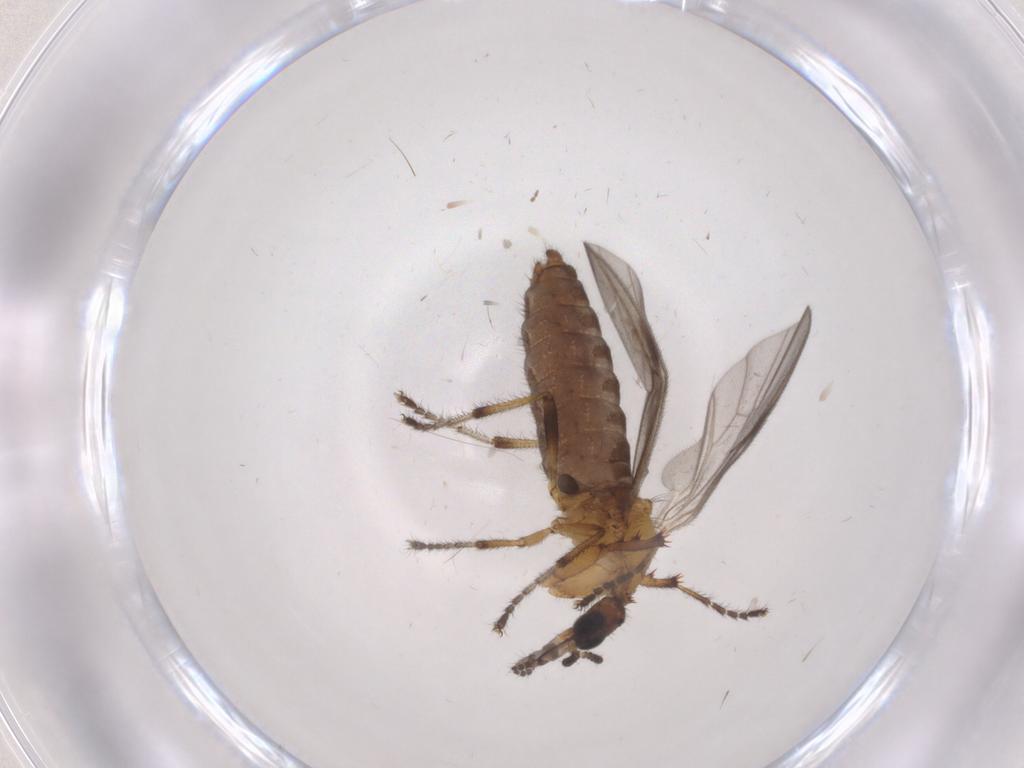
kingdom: Animalia
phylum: Arthropoda
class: Insecta
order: Diptera
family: Bibionidae
